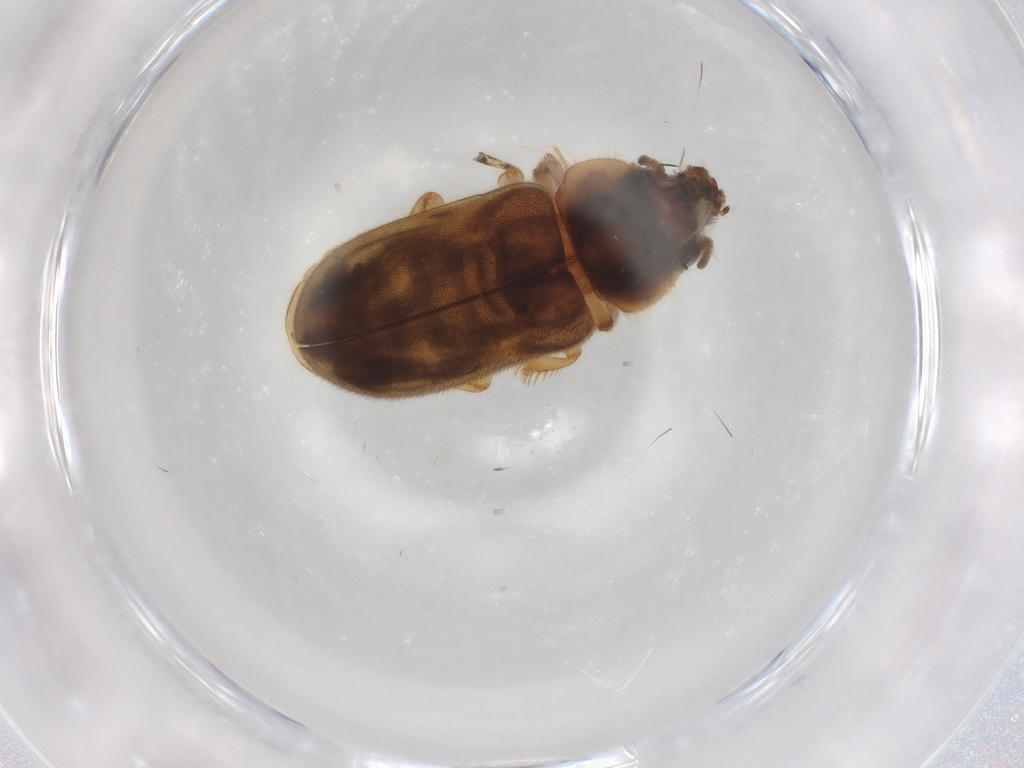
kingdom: Animalia
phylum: Arthropoda
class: Insecta
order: Coleoptera
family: Heteroceridae
